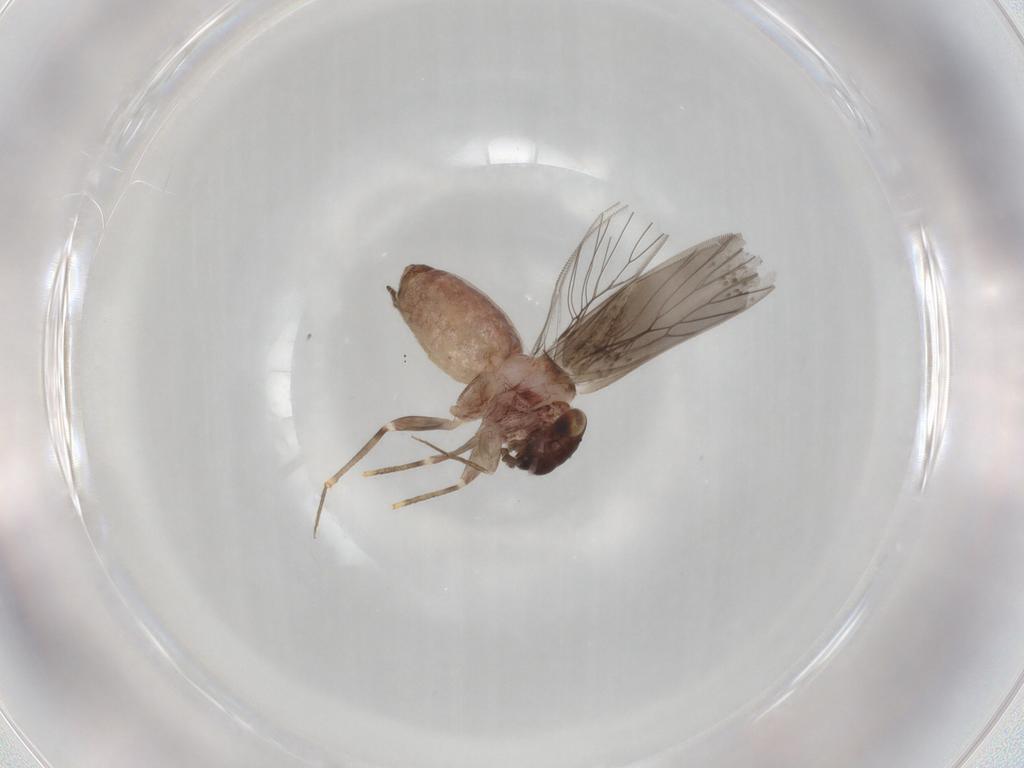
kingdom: Animalia
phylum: Arthropoda
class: Insecta
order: Psocodea
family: Lepidopsocidae
